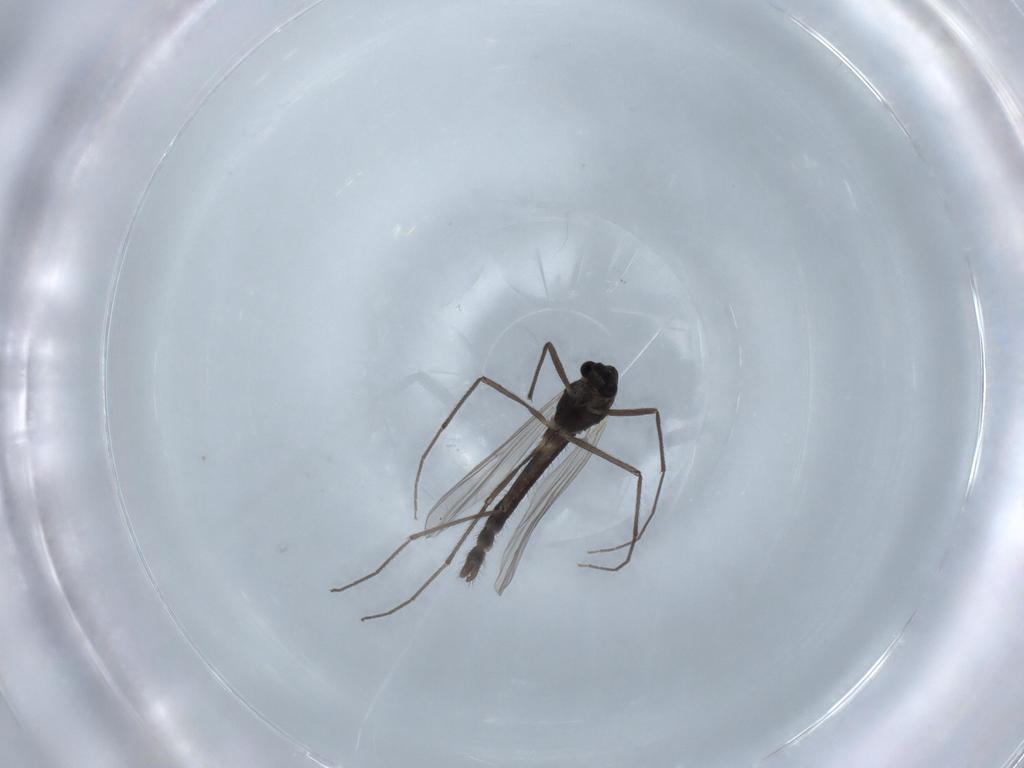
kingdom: Animalia
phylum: Arthropoda
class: Insecta
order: Diptera
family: Chironomidae
